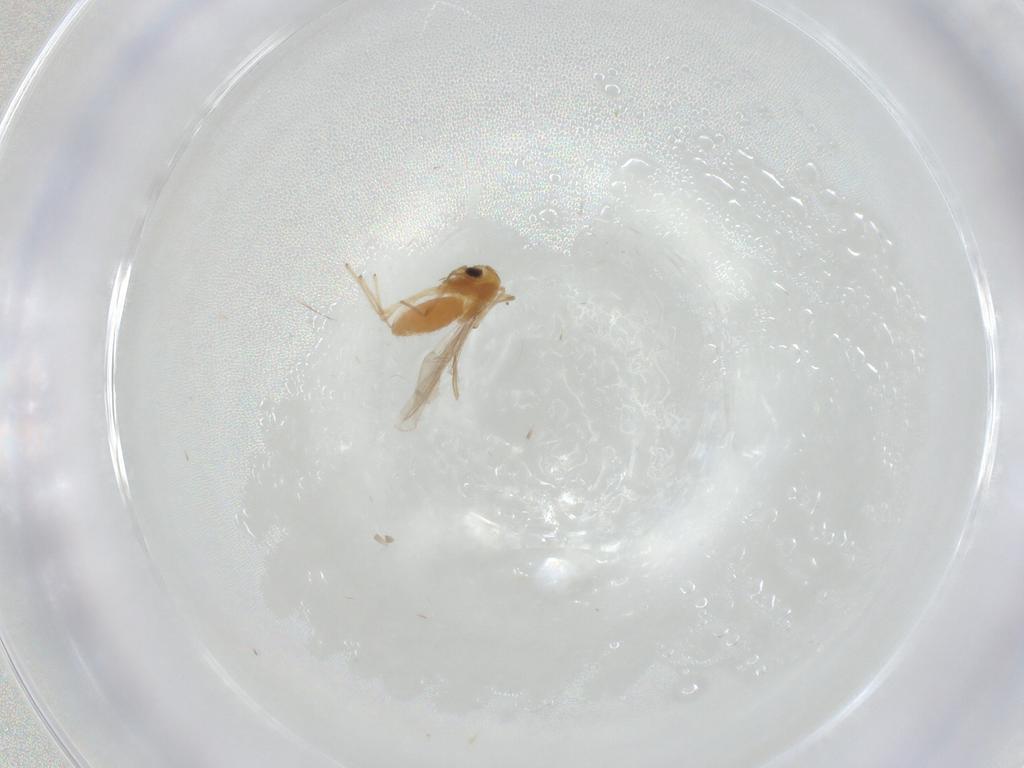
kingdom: Animalia
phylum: Arthropoda
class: Insecta
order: Diptera
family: Chironomidae
